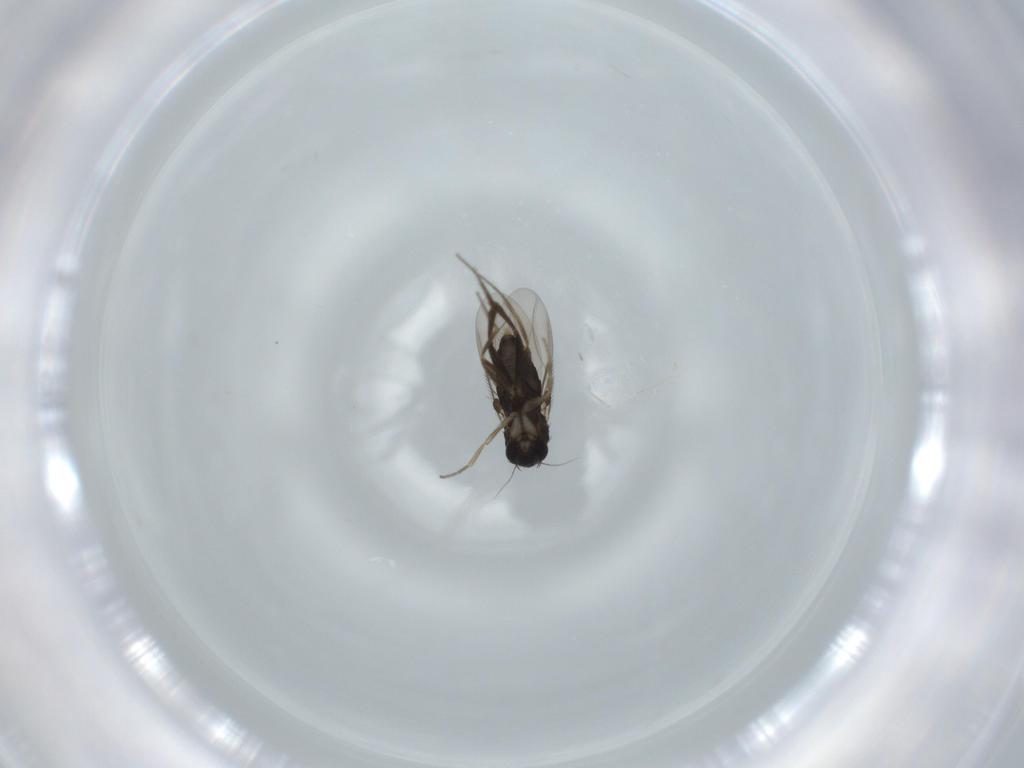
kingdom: Animalia
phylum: Arthropoda
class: Insecta
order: Diptera
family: Phoridae
